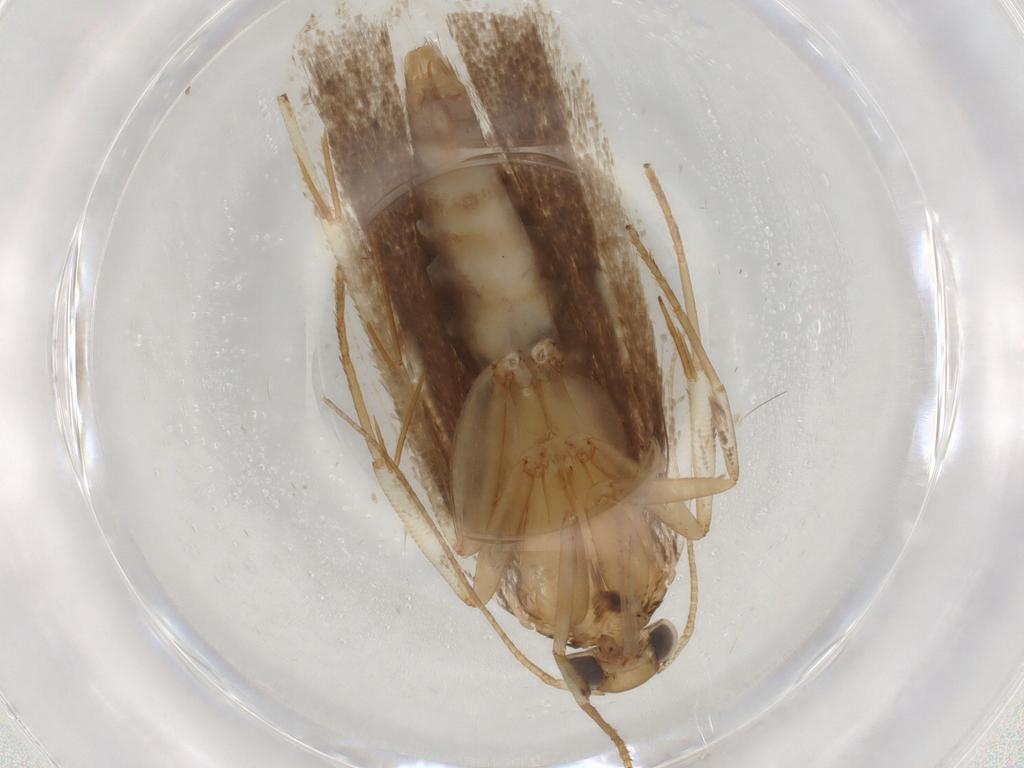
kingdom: Animalia
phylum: Arthropoda
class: Insecta
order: Lepidoptera
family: Pieridae
